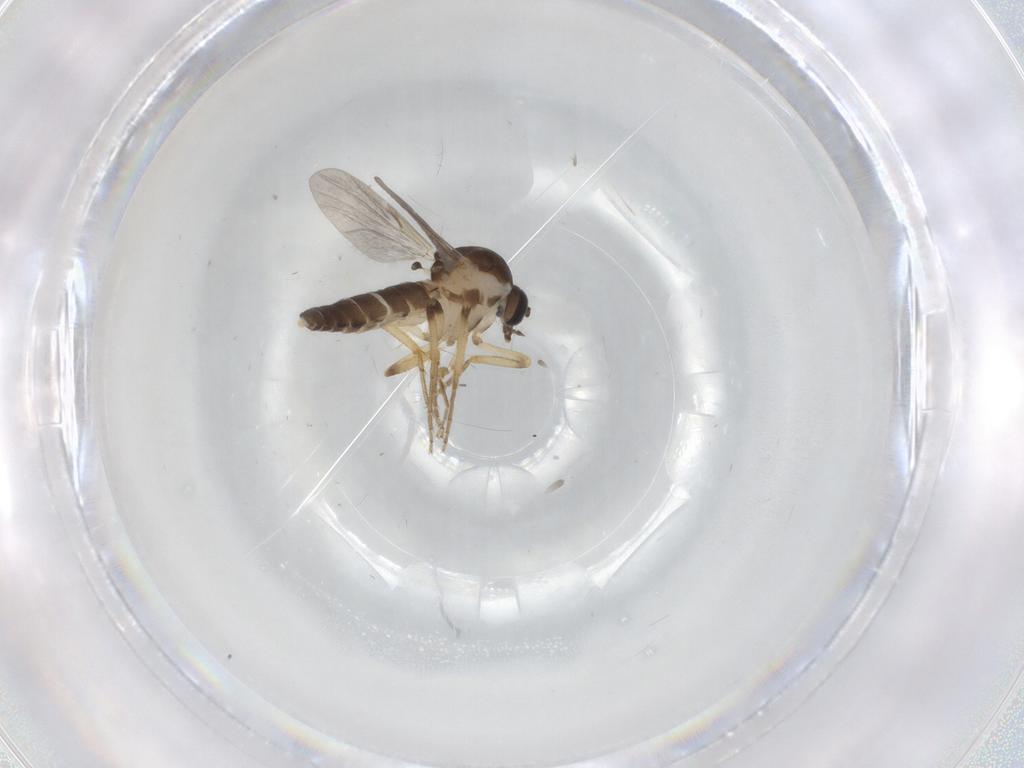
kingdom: Animalia
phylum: Arthropoda
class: Insecta
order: Diptera
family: Ceratopogonidae
